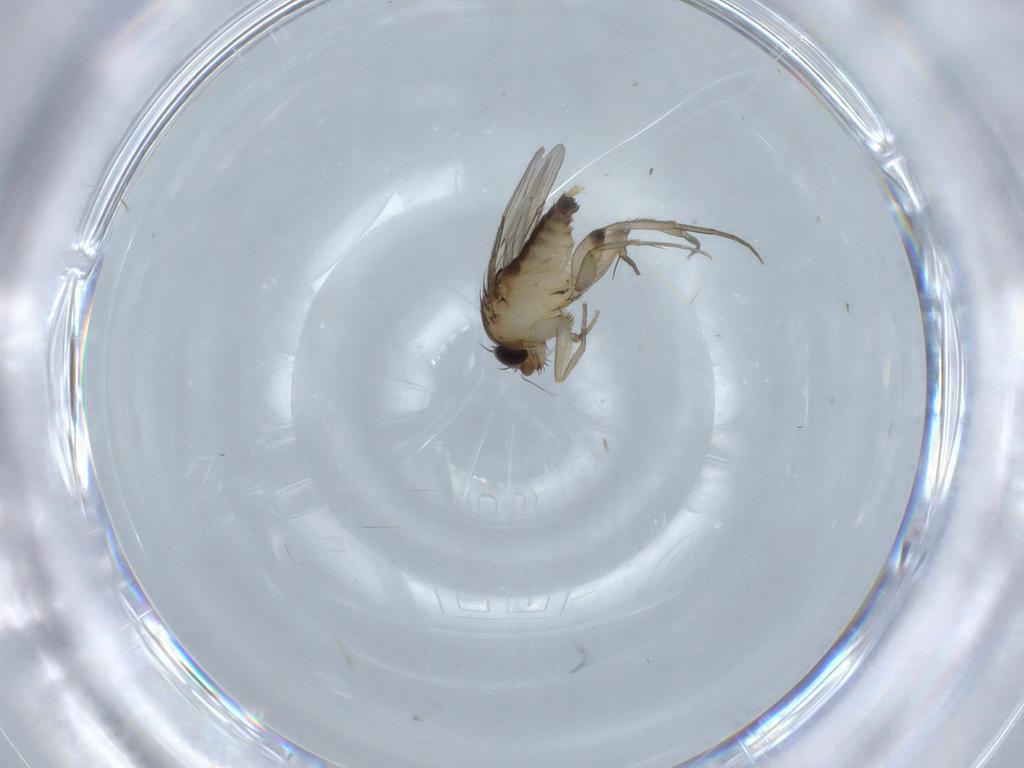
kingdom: Animalia
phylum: Arthropoda
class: Insecta
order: Diptera
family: Chironomidae
